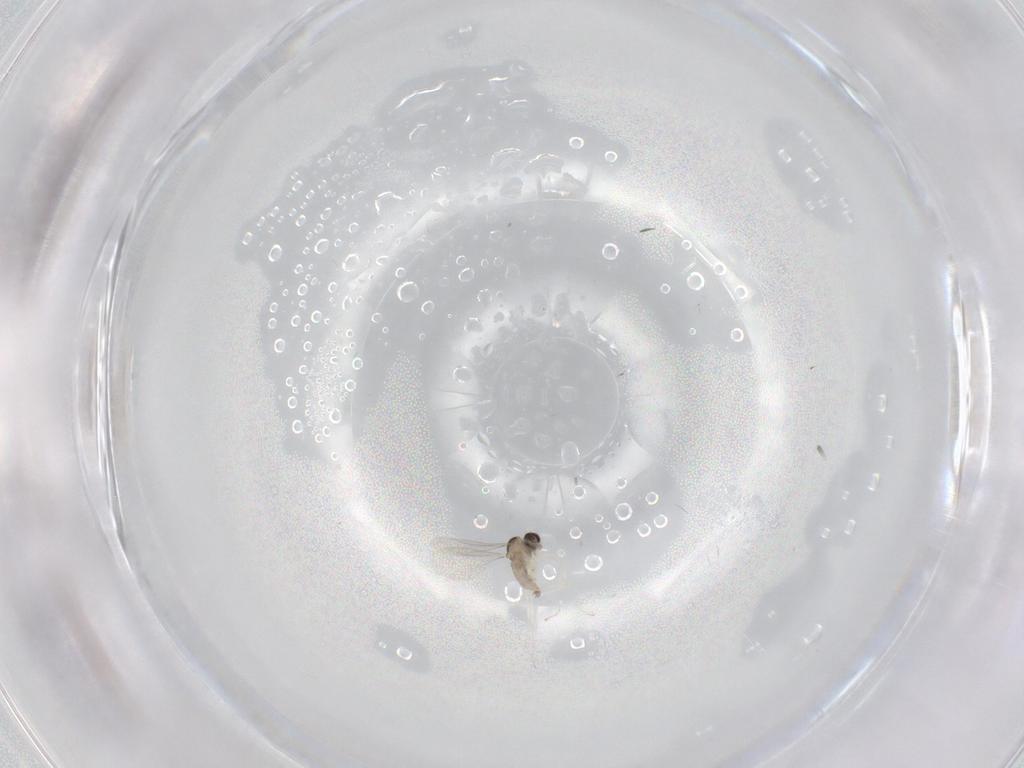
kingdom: Animalia
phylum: Arthropoda
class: Insecta
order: Diptera
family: Cecidomyiidae
